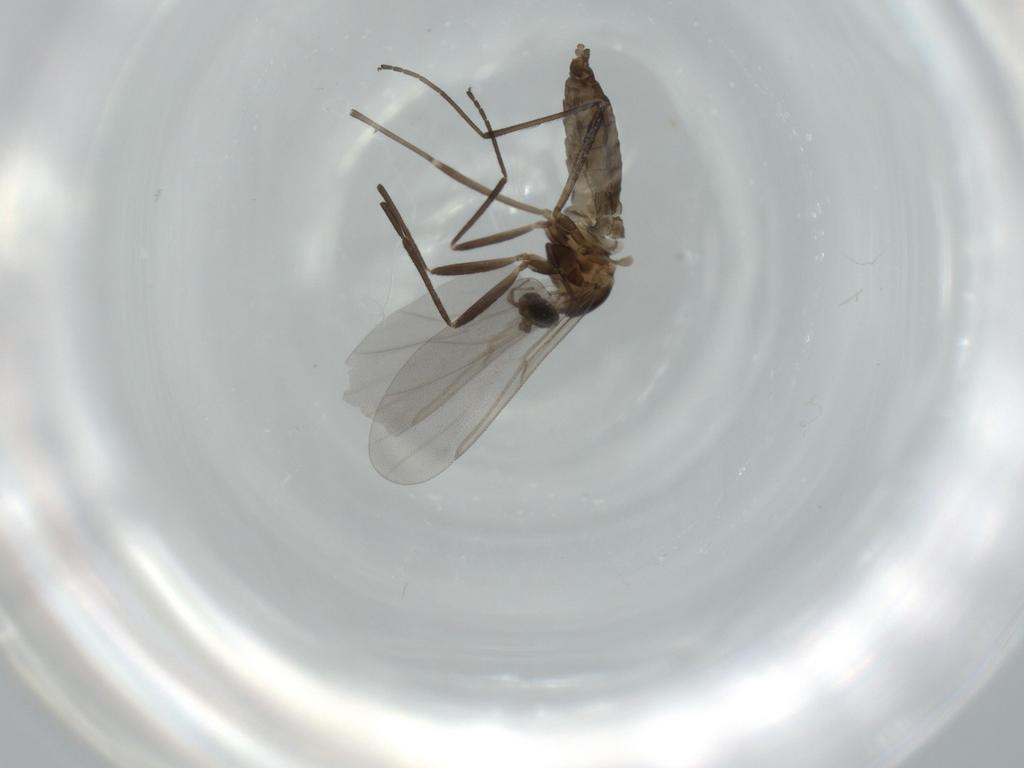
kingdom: Animalia
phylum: Arthropoda
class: Insecta
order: Diptera
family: Cecidomyiidae
